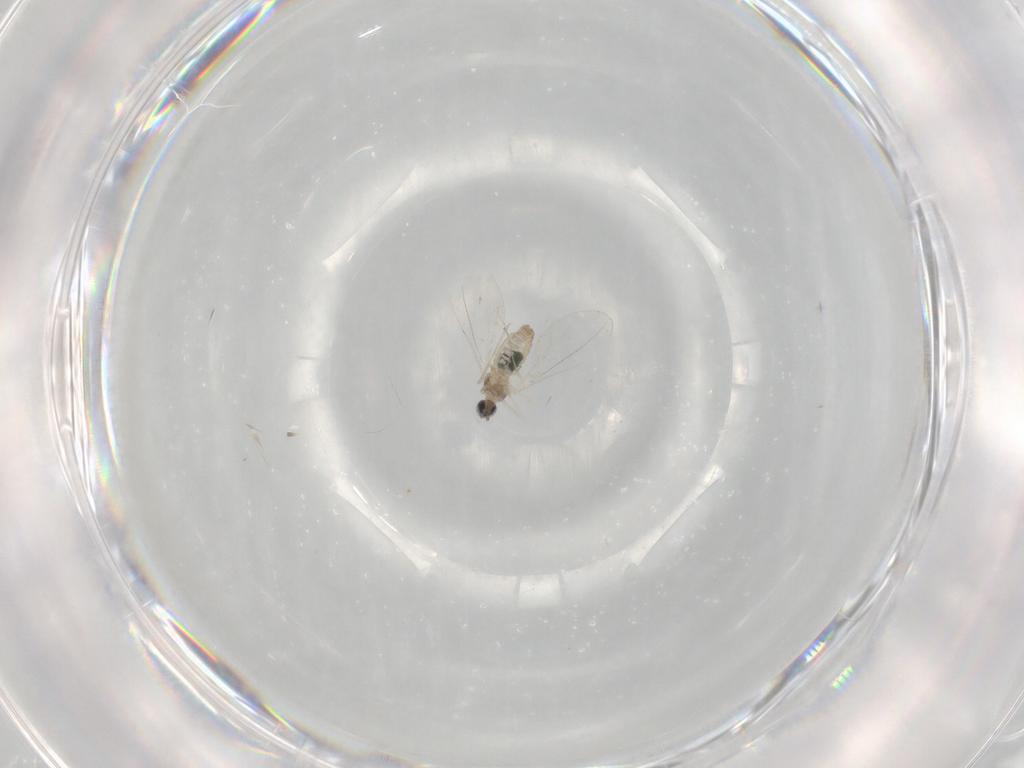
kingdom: Animalia
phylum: Arthropoda
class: Insecta
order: Diptera
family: Cecidomyiidae
